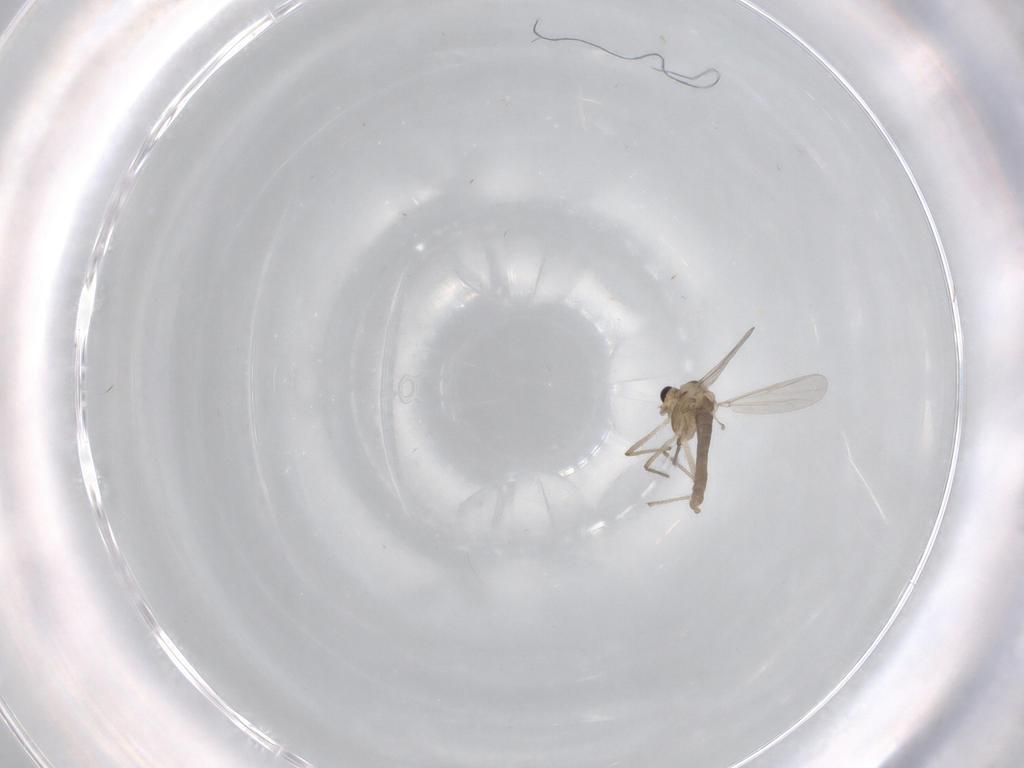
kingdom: Animalia
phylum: Arthropoda
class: Insecta
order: Diptera
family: Chironomidae
